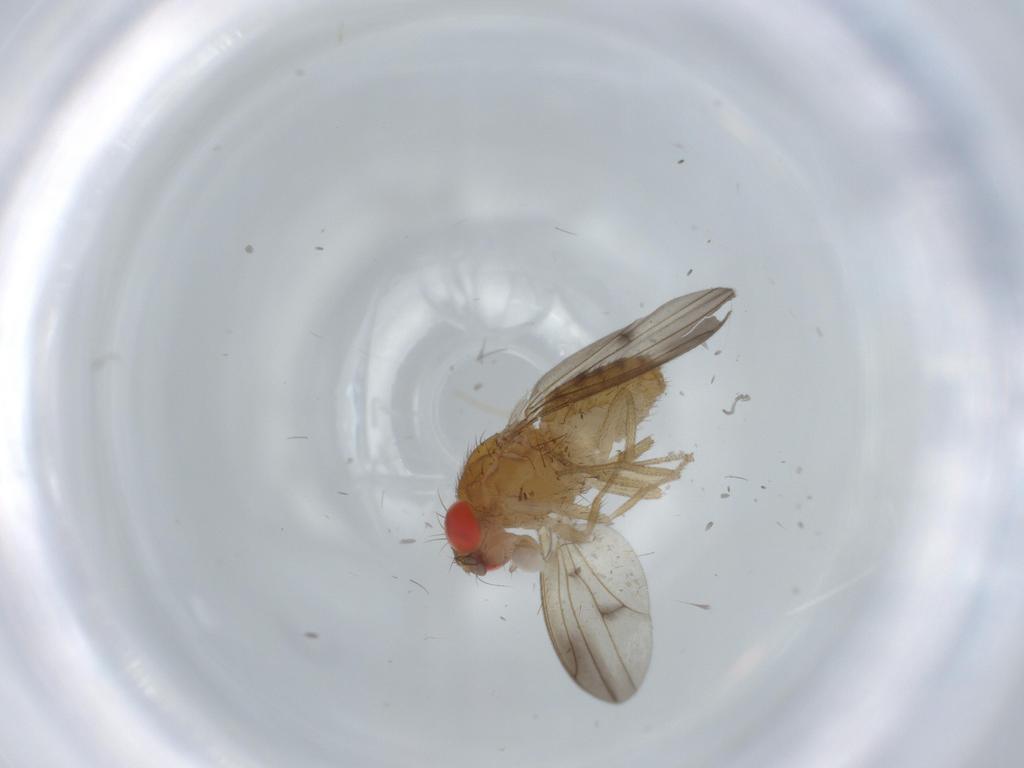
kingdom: Animalia
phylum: Arthropoda
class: Insecta
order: Diptera
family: Drosophilidae
